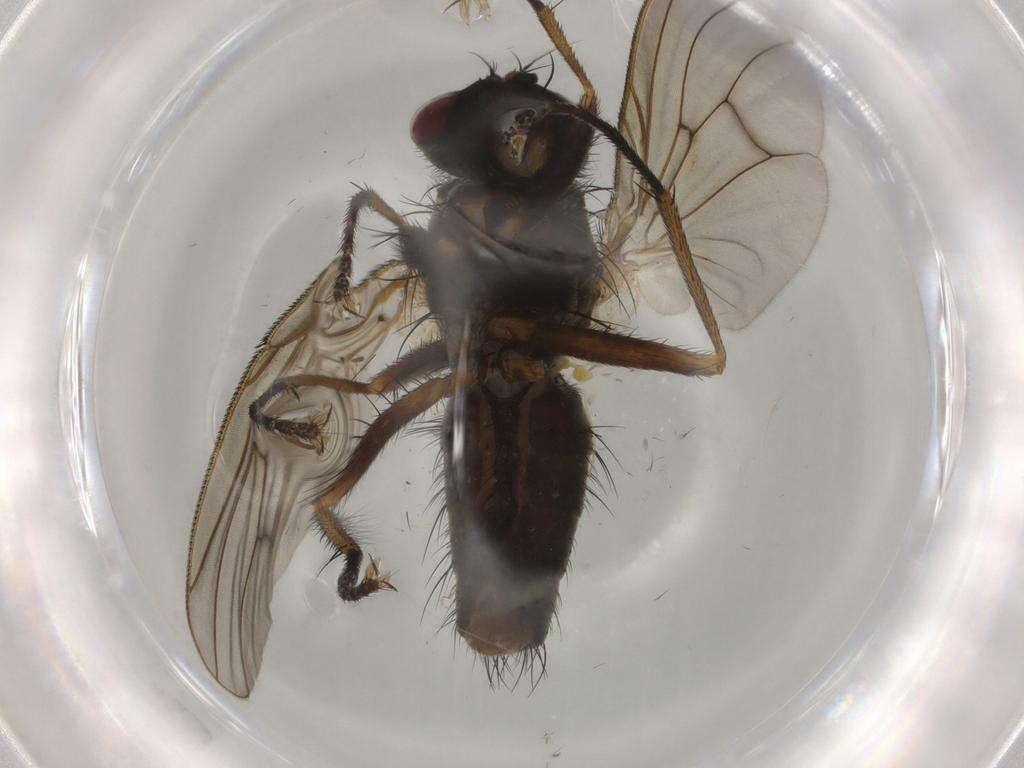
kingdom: Animalia
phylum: Arthropoda
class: Insecta
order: Diptera
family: Muscidae
